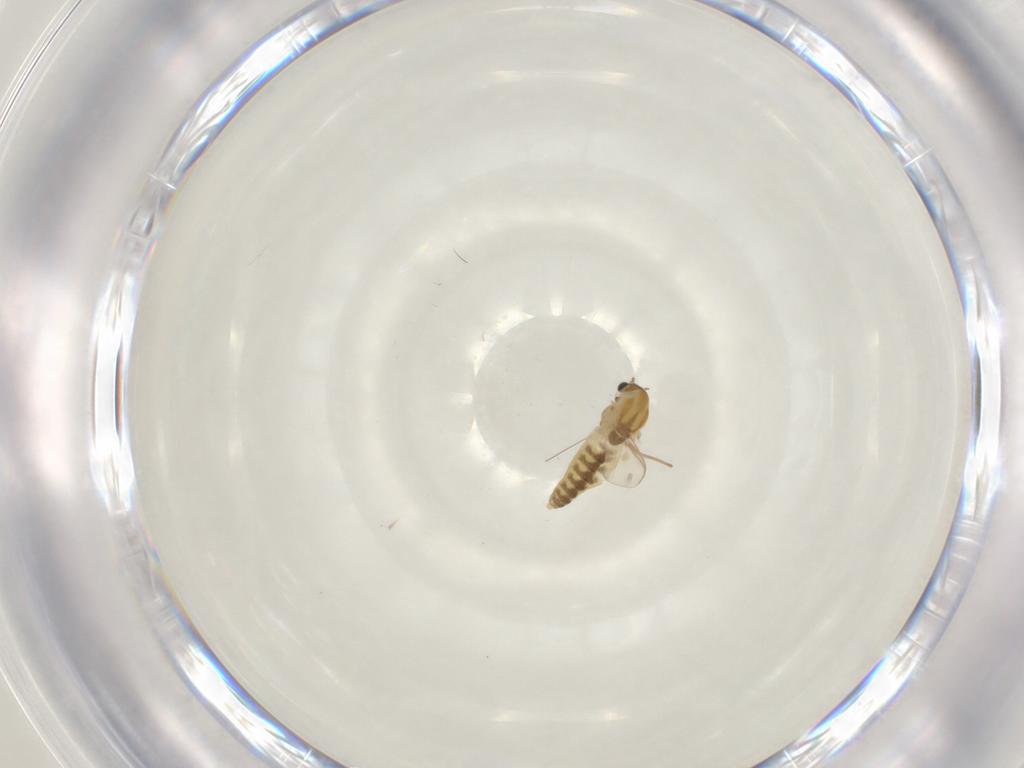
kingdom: Animalia
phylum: Arthropoda
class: Insecta
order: Diptera
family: Chironomidae
